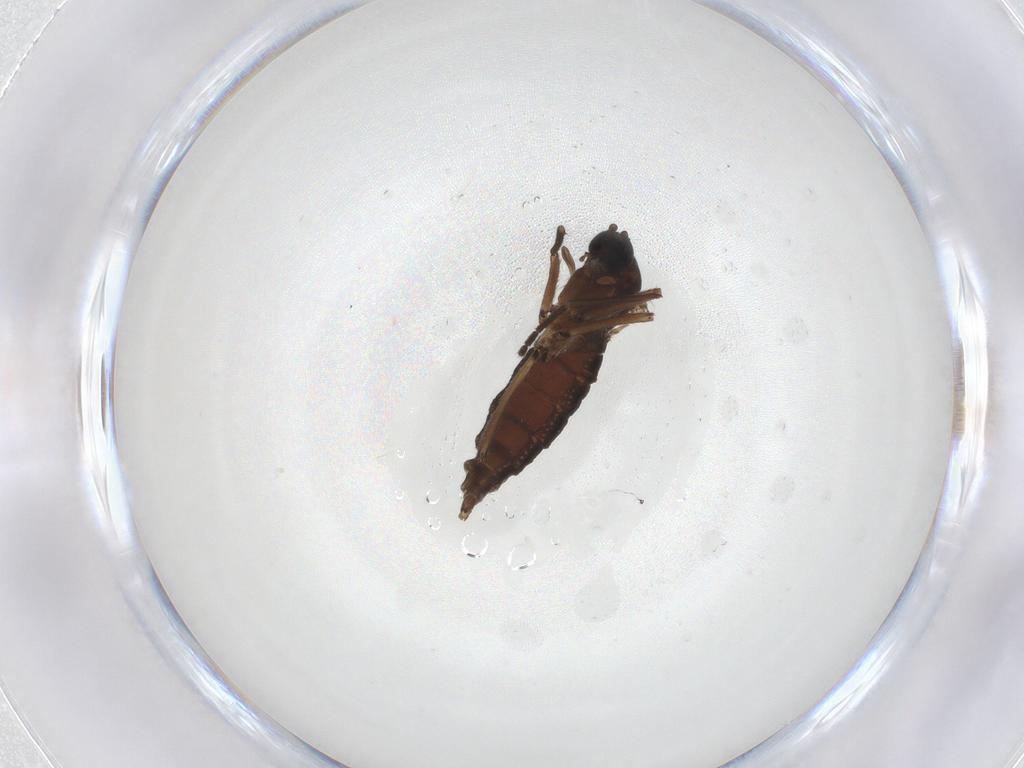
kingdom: Animalia
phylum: Arthropoda
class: Insecta
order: Diptera
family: Sciaridae
